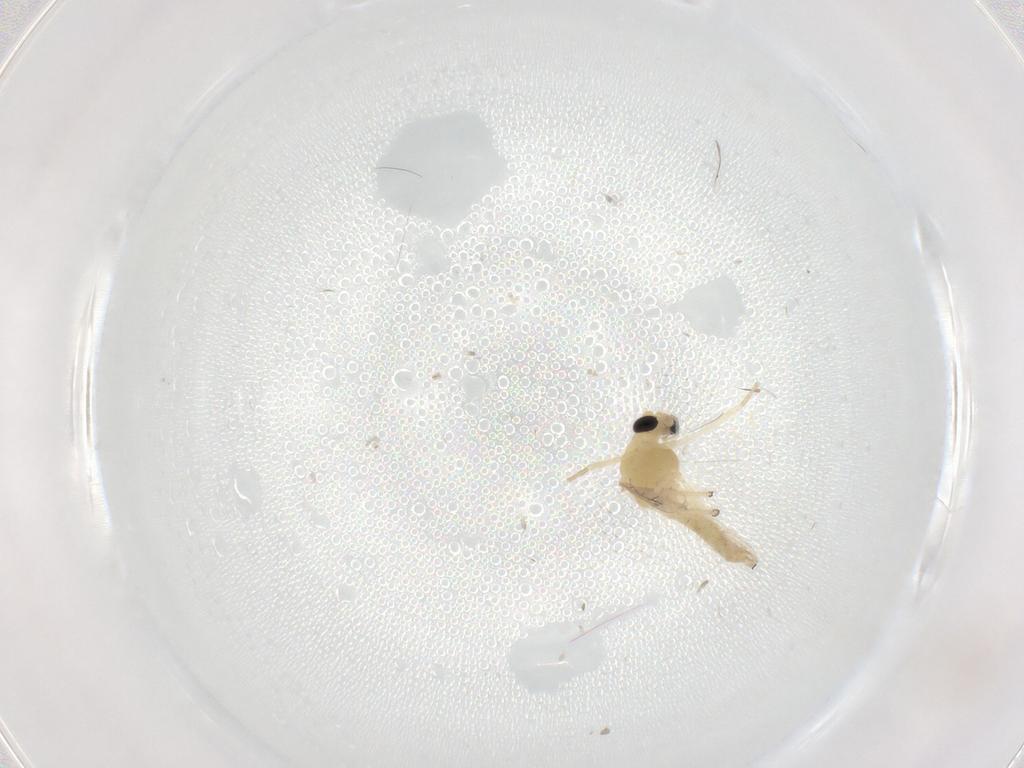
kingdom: Animalia
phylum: Arthropoda
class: Insecta
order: Diptera
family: Chironomidae
